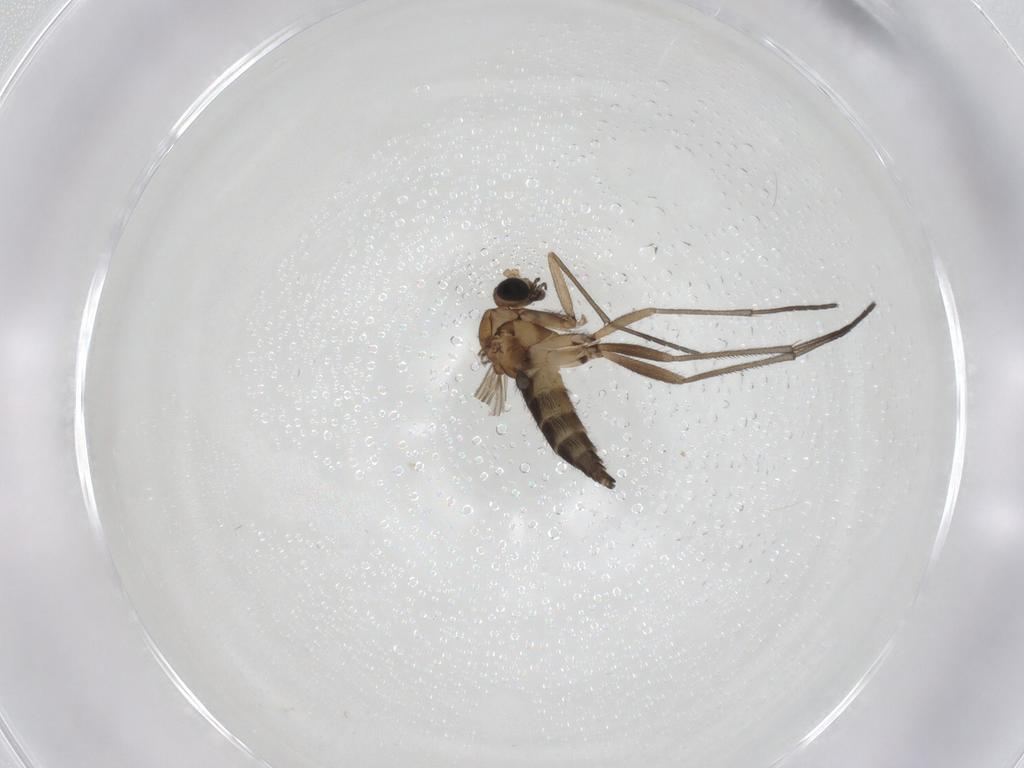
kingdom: Animalia
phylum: Arthropoda
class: Insecta
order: Diptera
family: Sciaridae
